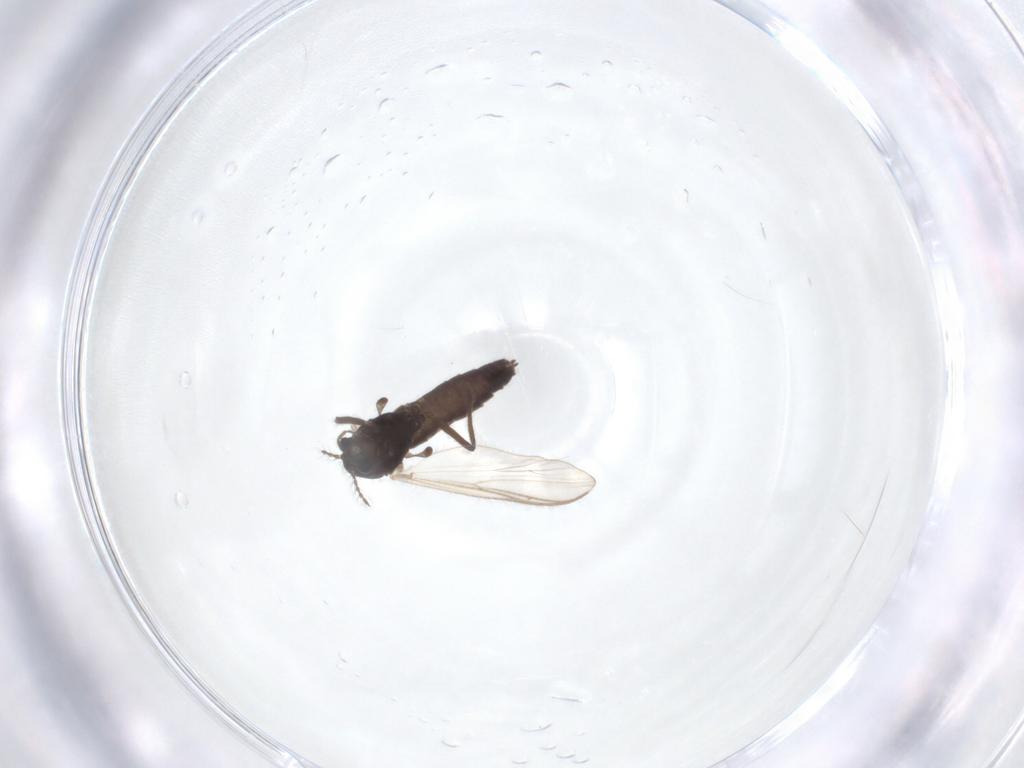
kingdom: Animalia
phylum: Arthropoda
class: Insecta
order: Diptera
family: Chironomidae
